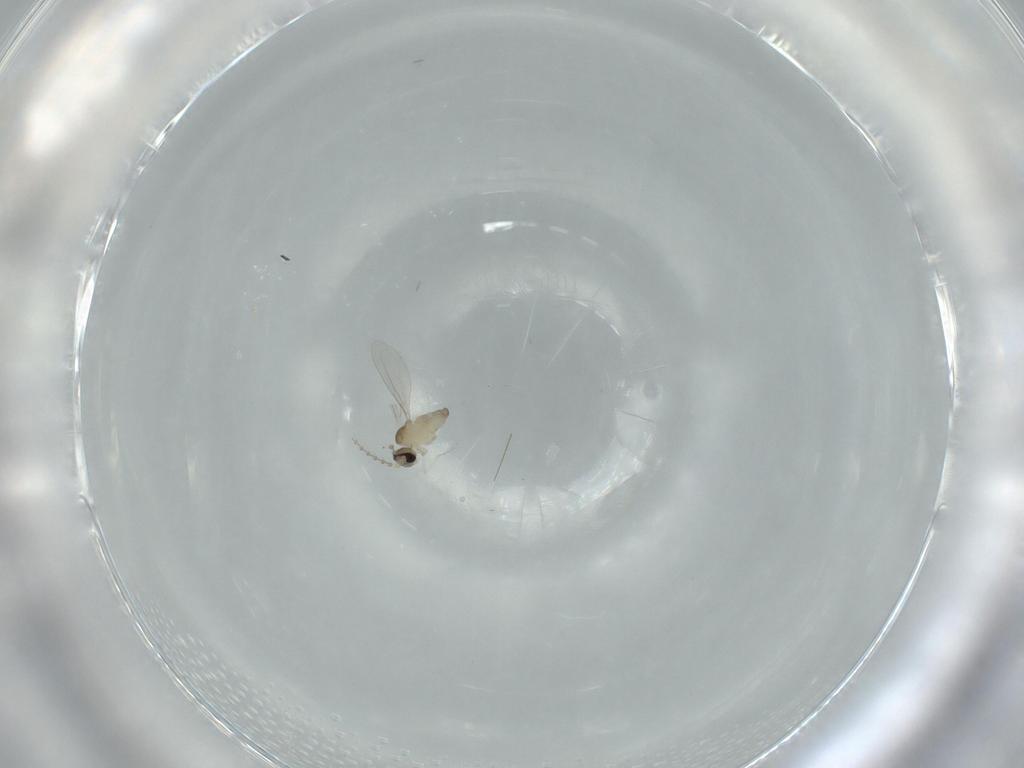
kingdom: Animalia
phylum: Arthropoda
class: Insecta
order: Diptera
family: Cecidomyiidae
